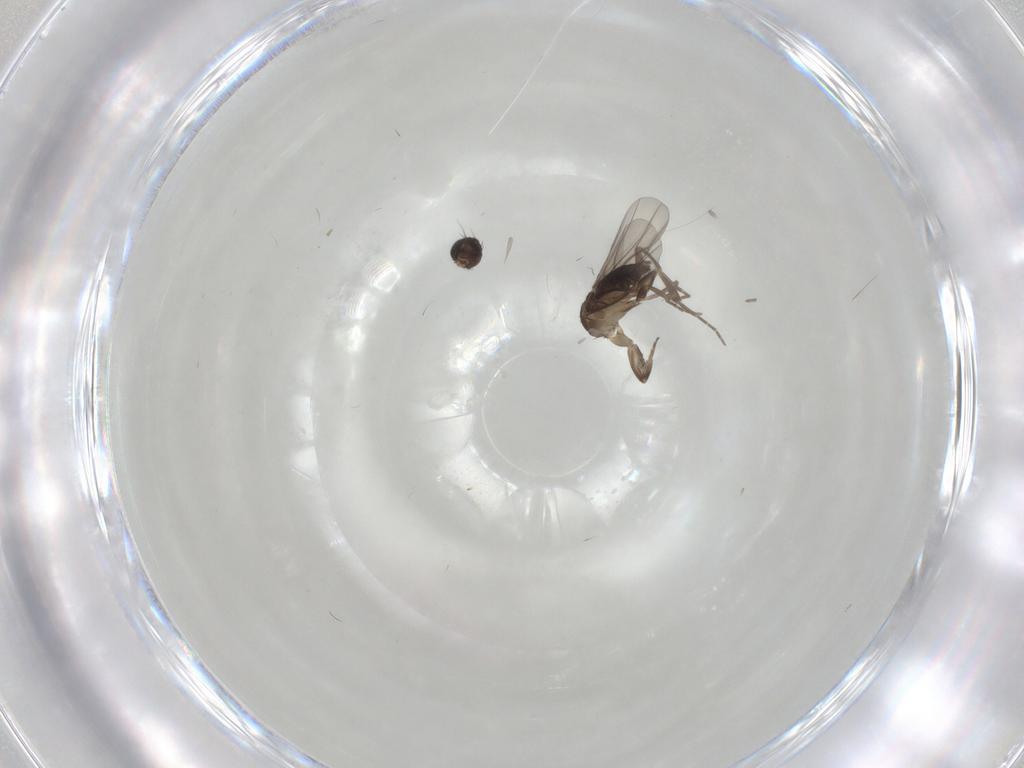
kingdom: Animalia
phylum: Arthropoda
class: Insecta
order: Diptera
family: Phoridae
